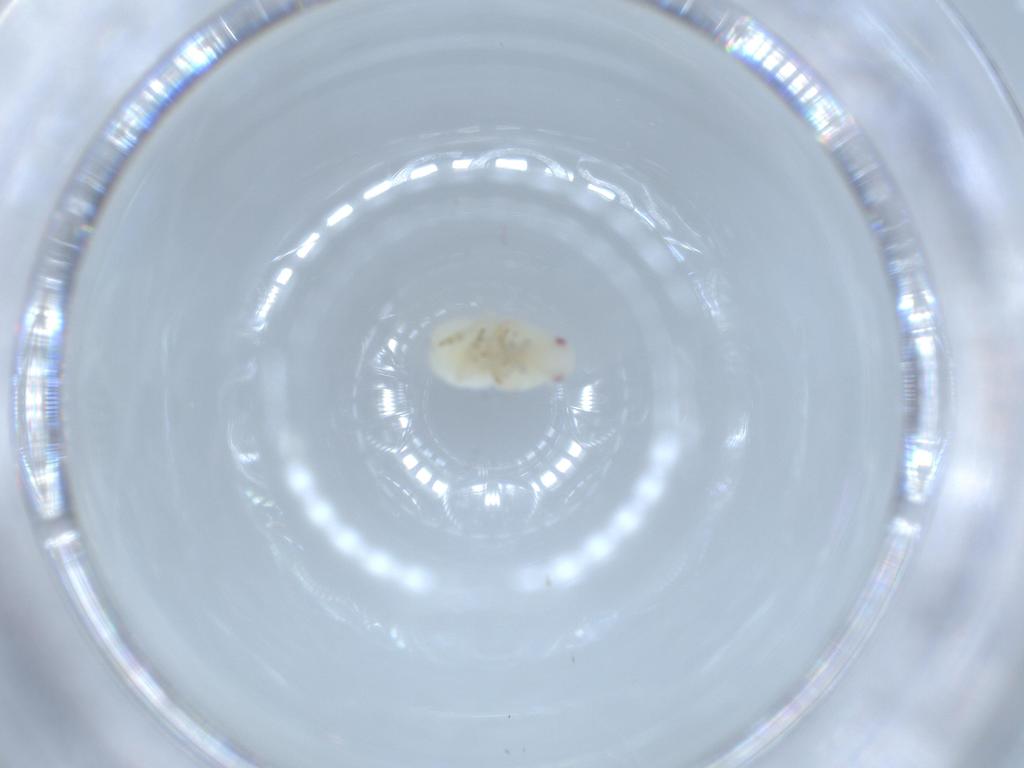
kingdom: Animalia
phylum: Arthropoda
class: Insecta
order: Hemiptera
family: Flatidae
